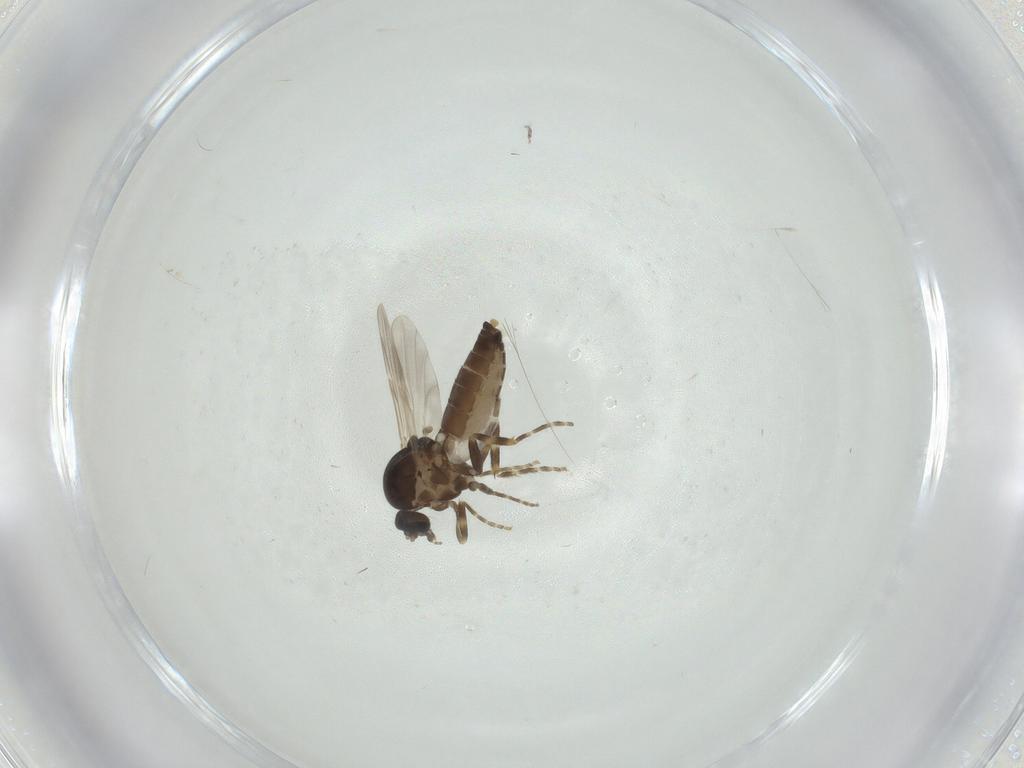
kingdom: Animalia
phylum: Arthropoda
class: Insecta
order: Diptera
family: Ceratopogonidae
